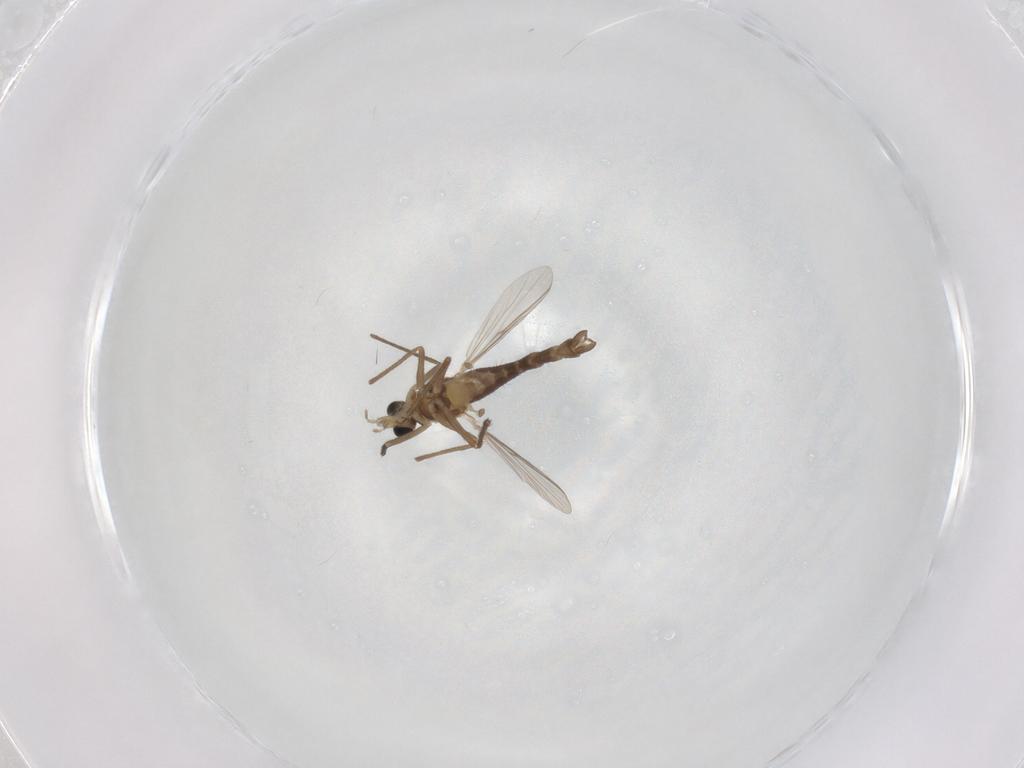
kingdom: Animalia
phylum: Arthropoda
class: Insecta
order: Diptera
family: Chironomidae
